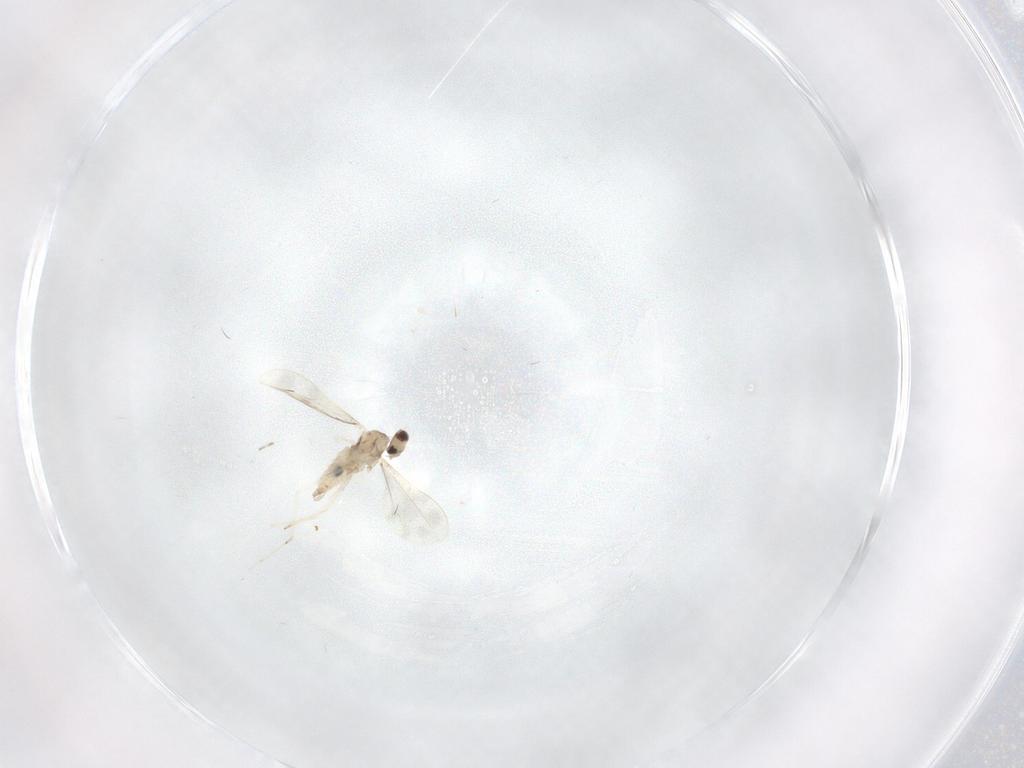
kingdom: Animalia
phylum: Arthropoda
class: Insecta
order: Diptera
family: Cecidomyiidae
